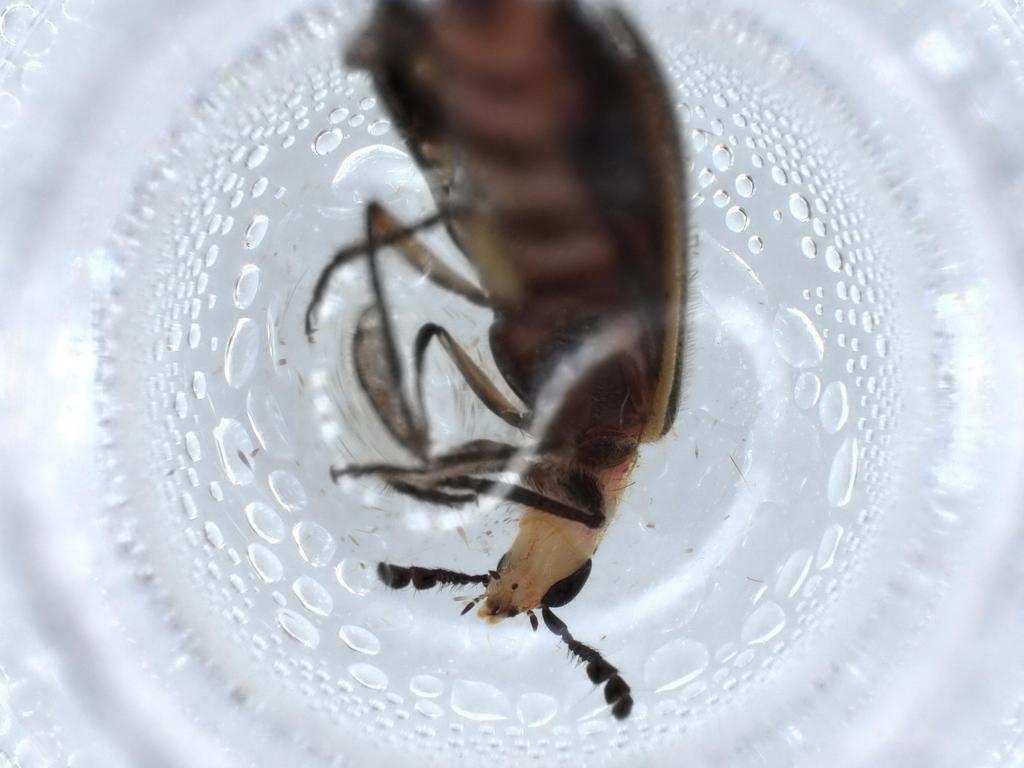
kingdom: Animalia
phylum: Arthropoda
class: Insecta
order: Coleoptera
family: Cleridae
